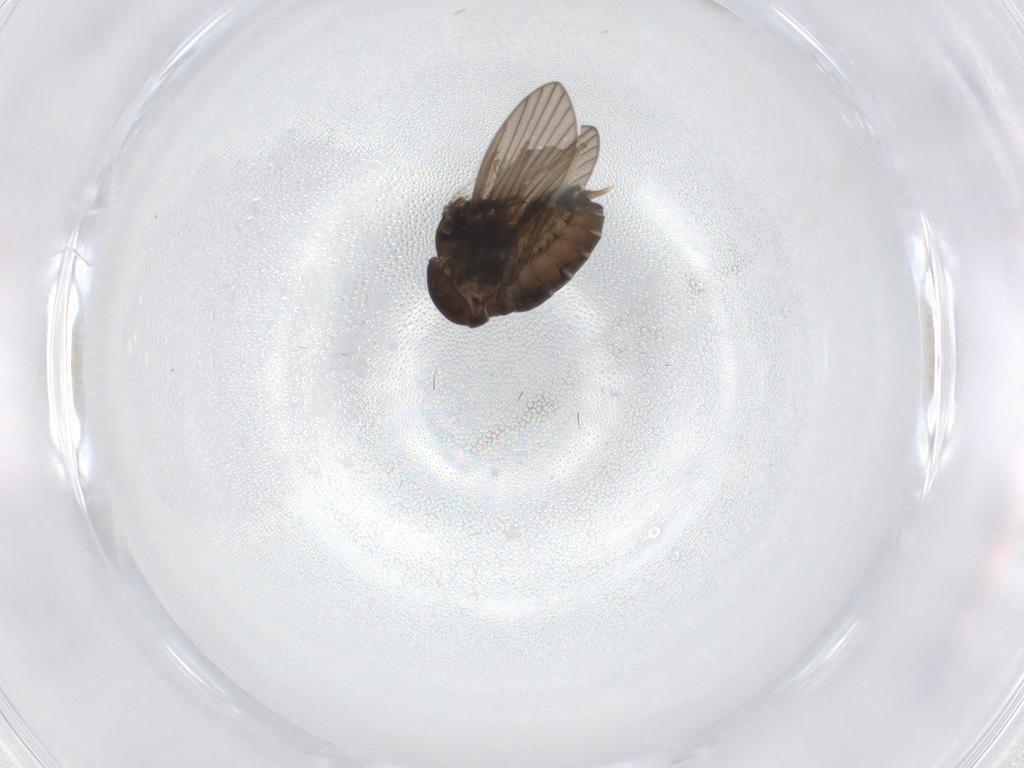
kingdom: Animalia
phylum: Arthropoda
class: Insecta
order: Diptera
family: Psychodidae
